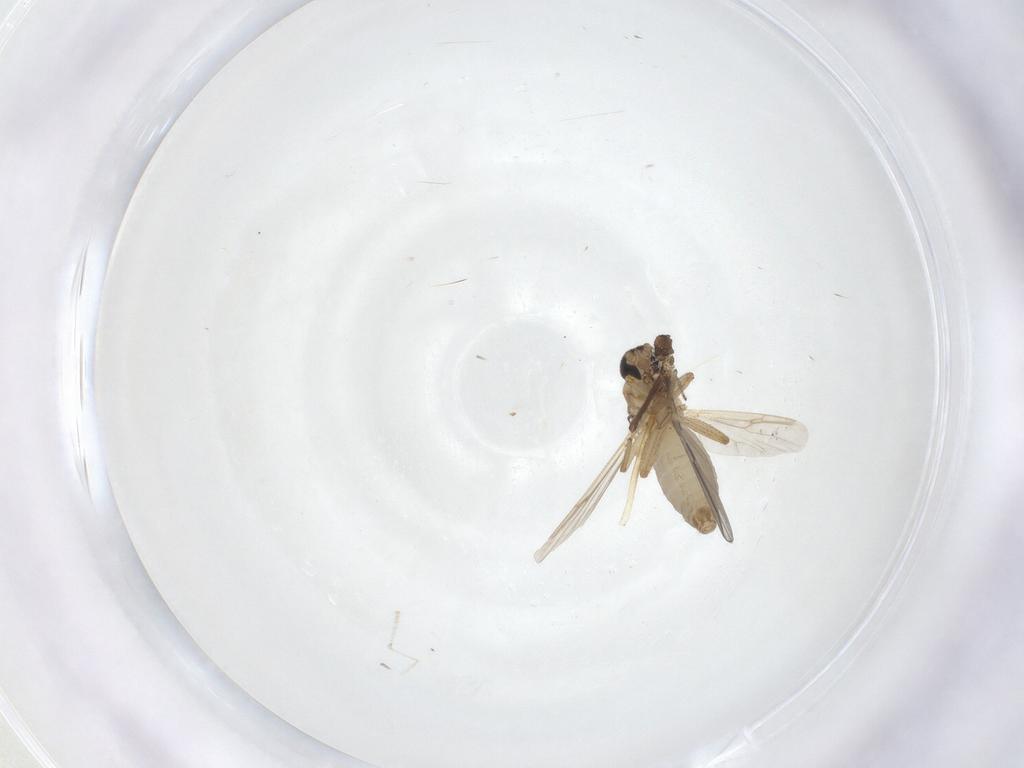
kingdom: Animalia
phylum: Arthropoda
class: Insecta
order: Diptera
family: Ceratopogonidae
